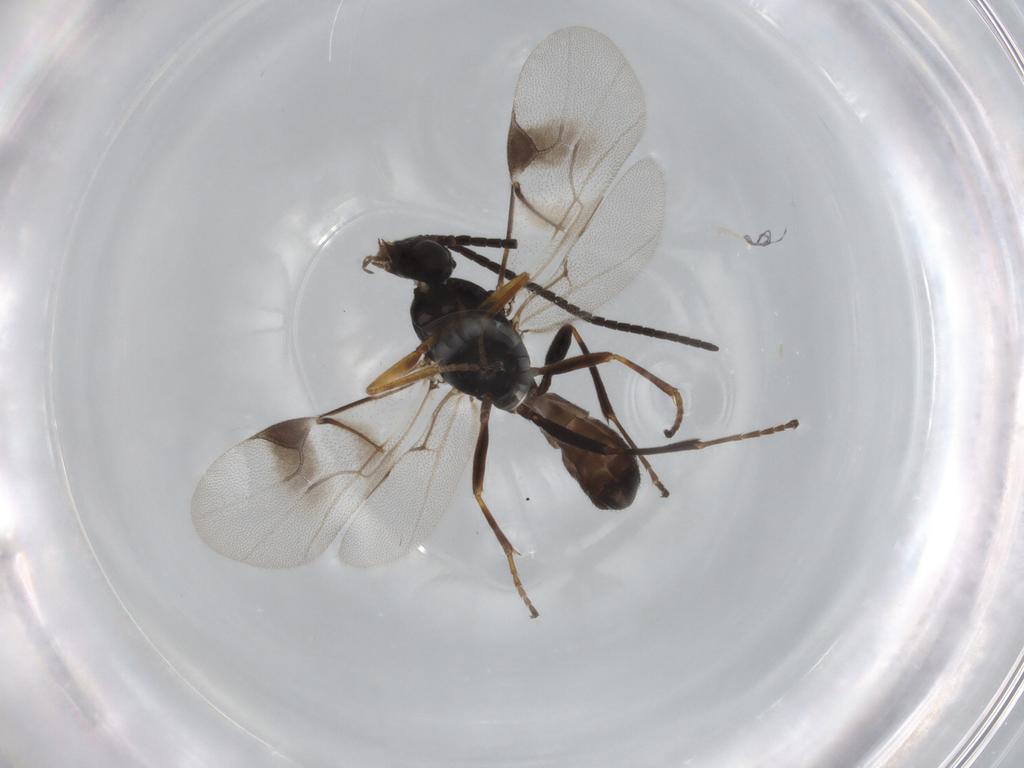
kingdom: Animalia
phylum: Arthropoda
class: Insecta
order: Hymenoptera
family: Braconidae
